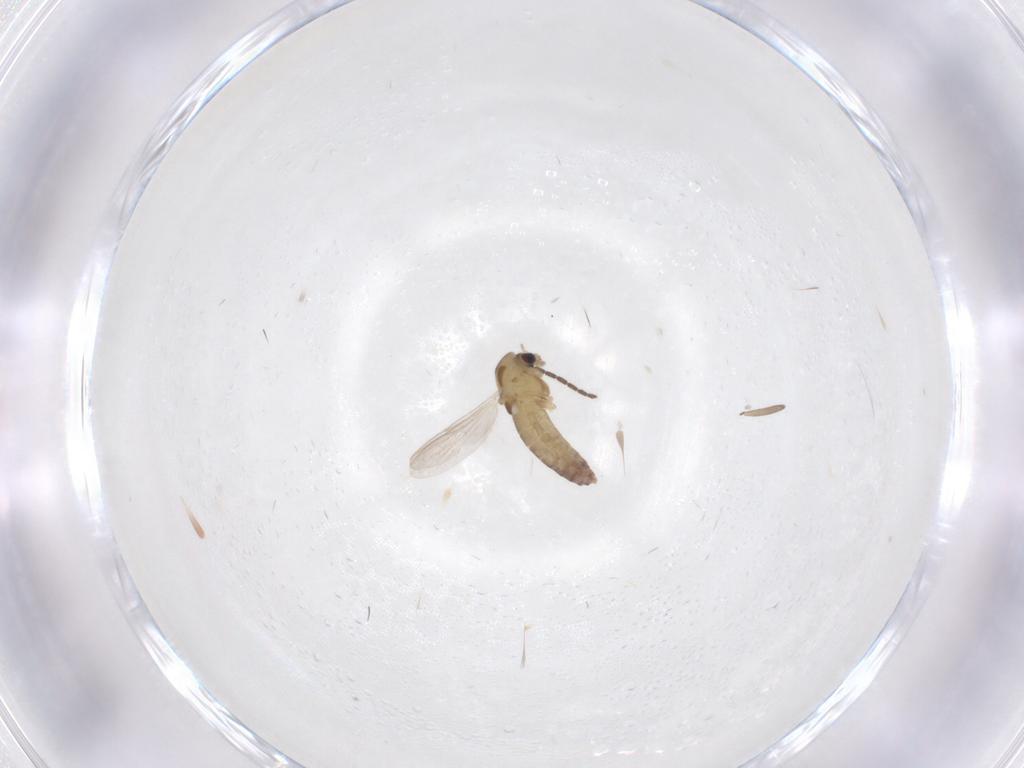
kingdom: Animalia
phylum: Arthropoda
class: Insecta
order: Diptera
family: Chironomidae
